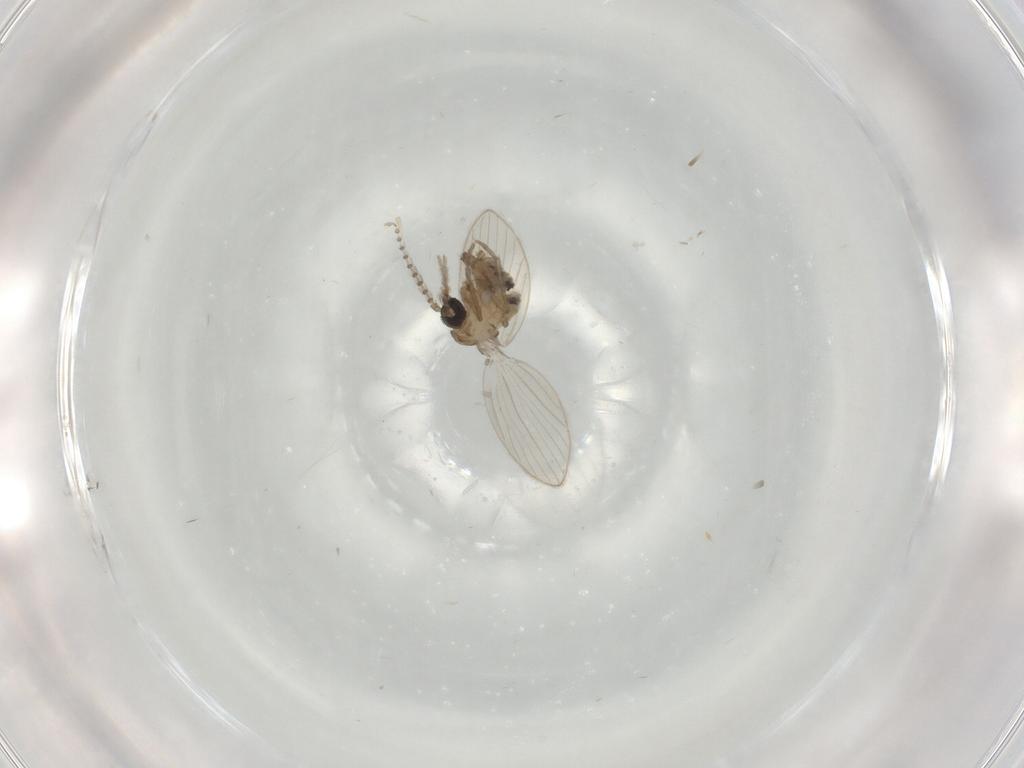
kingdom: Animalia
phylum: Arthropoda
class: Insecta
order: Diptera
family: Psychodidae
